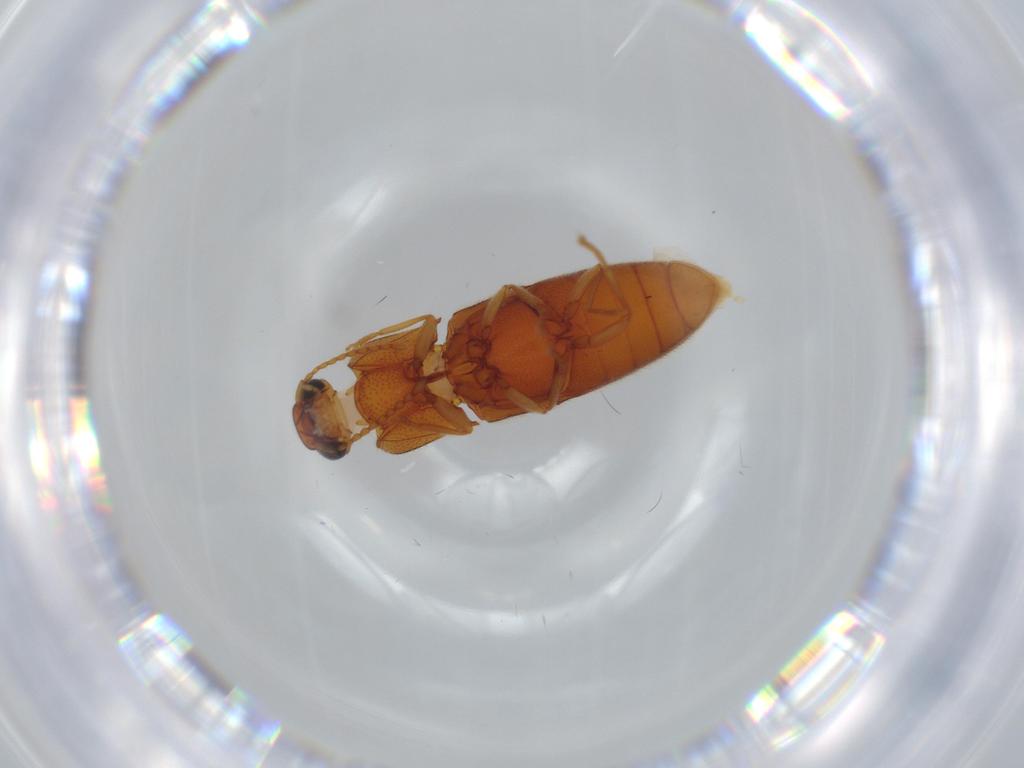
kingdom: Animalia
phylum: Arthropoda
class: Insecta
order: Coleoptera
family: Elateridae
